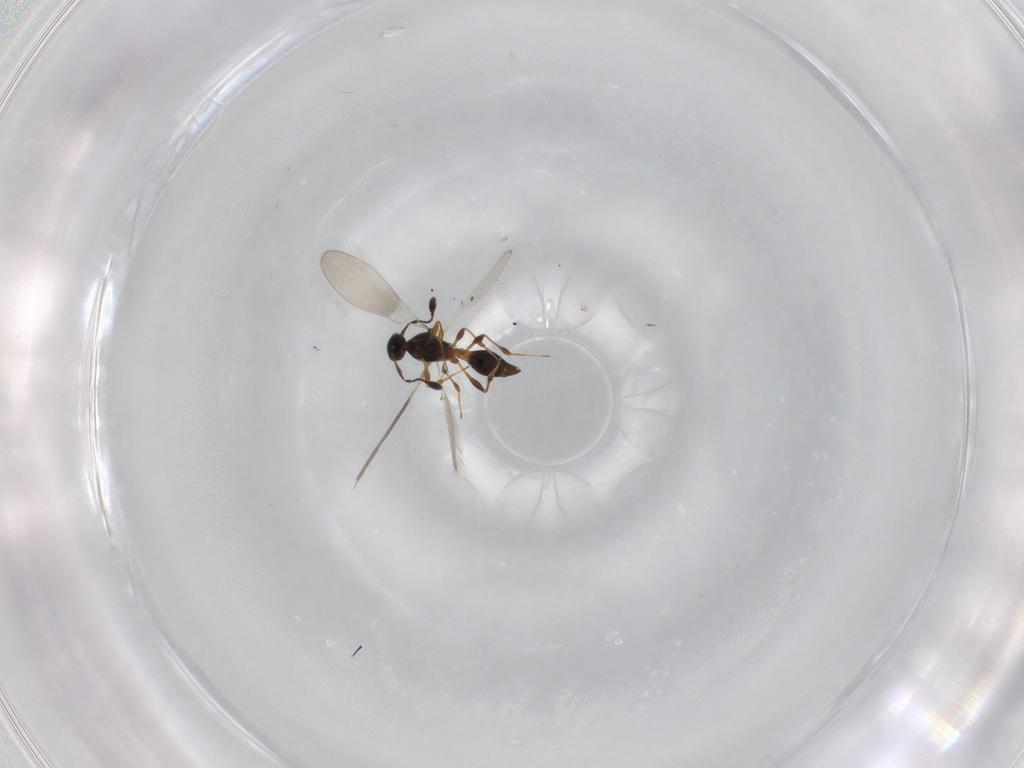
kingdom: Animalia
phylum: Arthropoda
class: Insecta
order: Hymenoptera
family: Platygastridae
